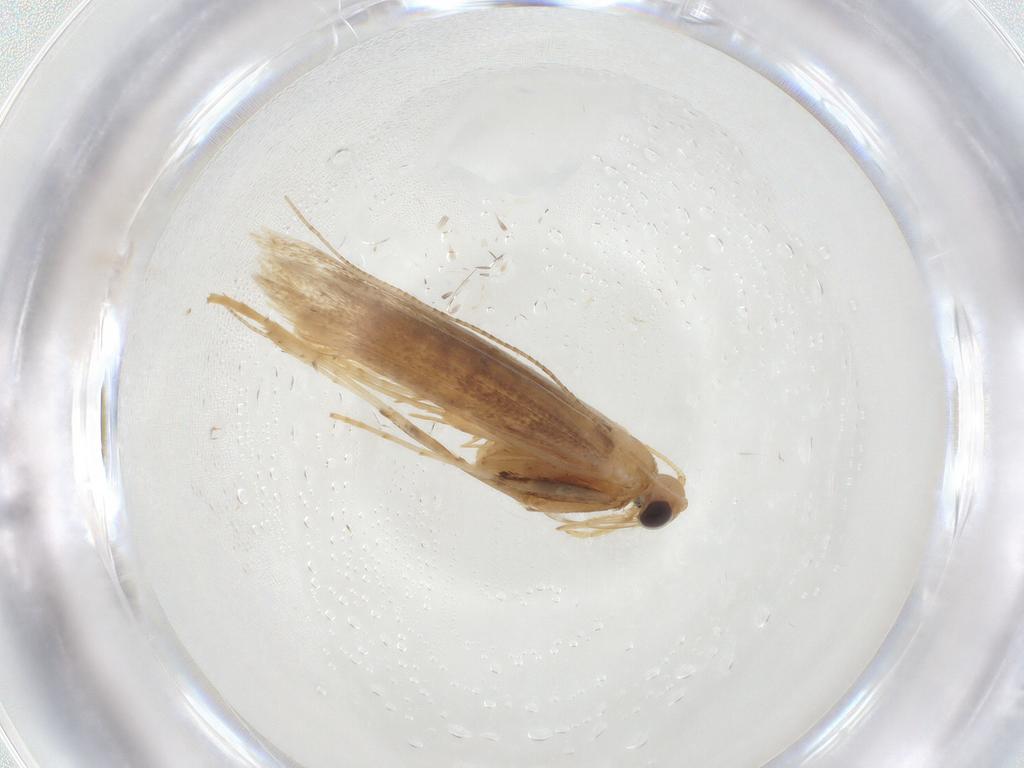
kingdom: Animalia
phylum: Arthropoda
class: Insecta
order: Lepidoptera
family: Gracillariidae
